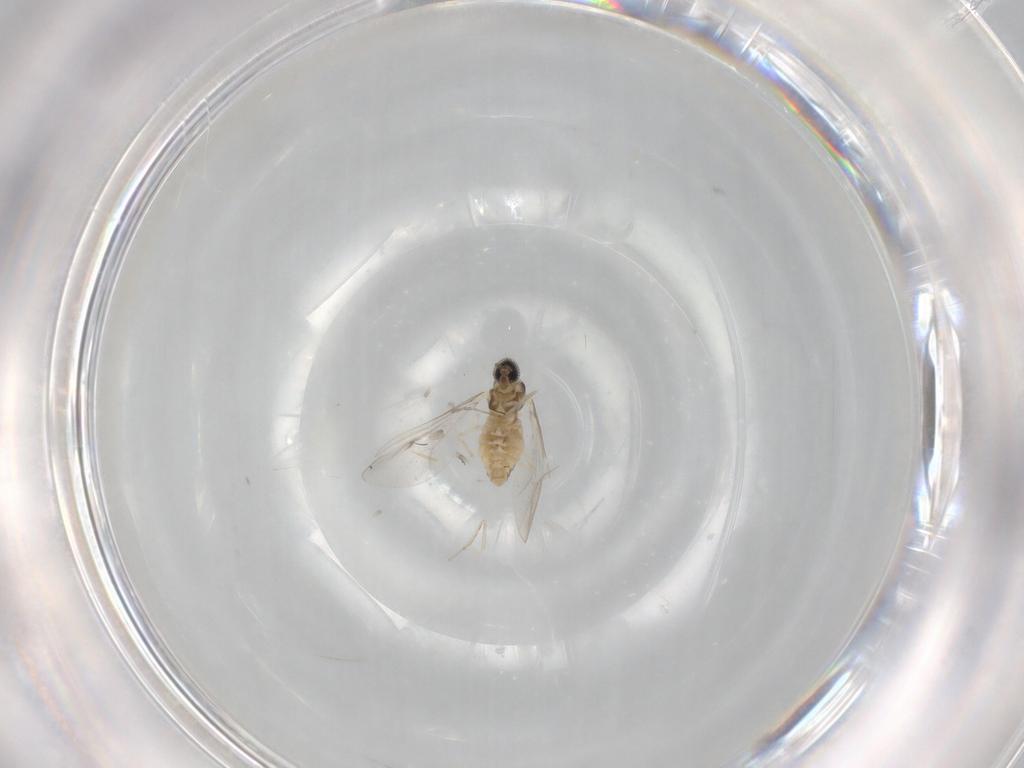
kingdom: Animalia
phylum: Arthropoda
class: Insecta
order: Diptera
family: Cecidomyiidae
